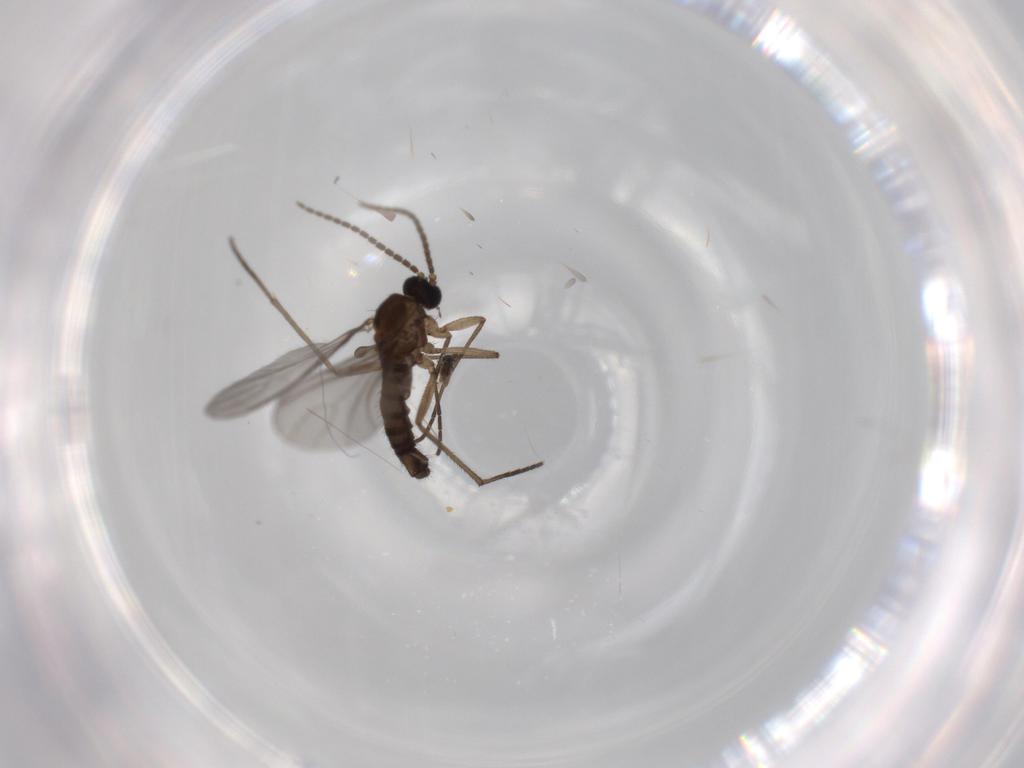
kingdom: Animalia
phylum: Arthropoda
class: Insecta
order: Diptera
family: Sciaridae
